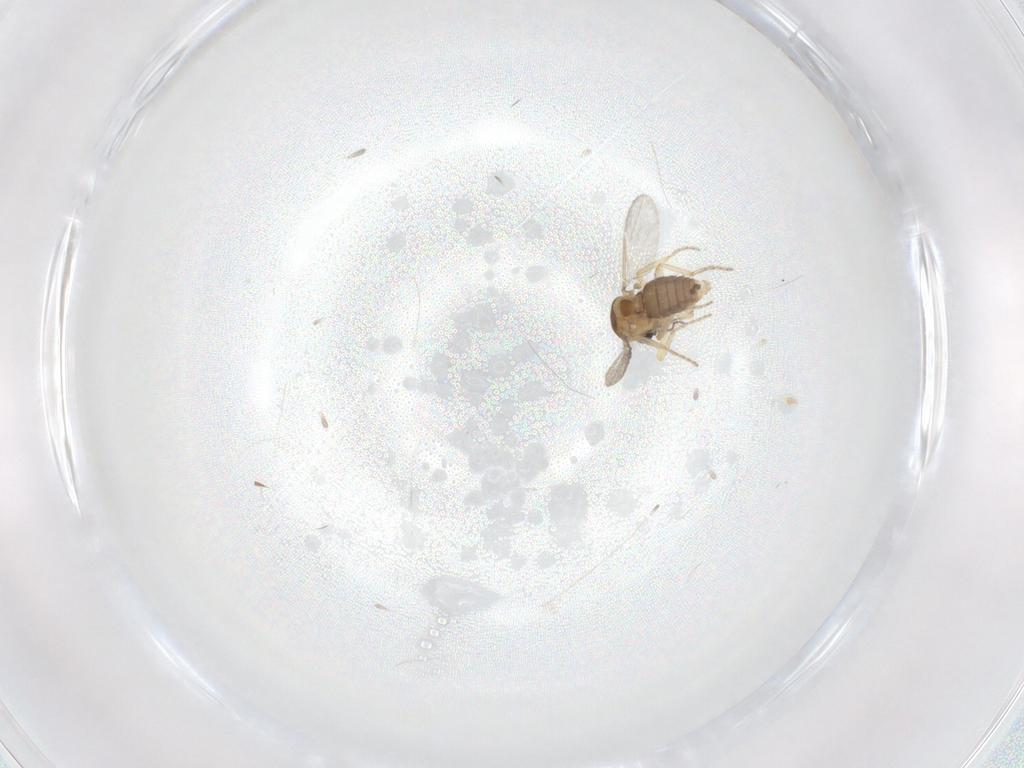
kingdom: Animalia
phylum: Arthropoda
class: Insecta
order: Diptera
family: Ceratopogonidae
